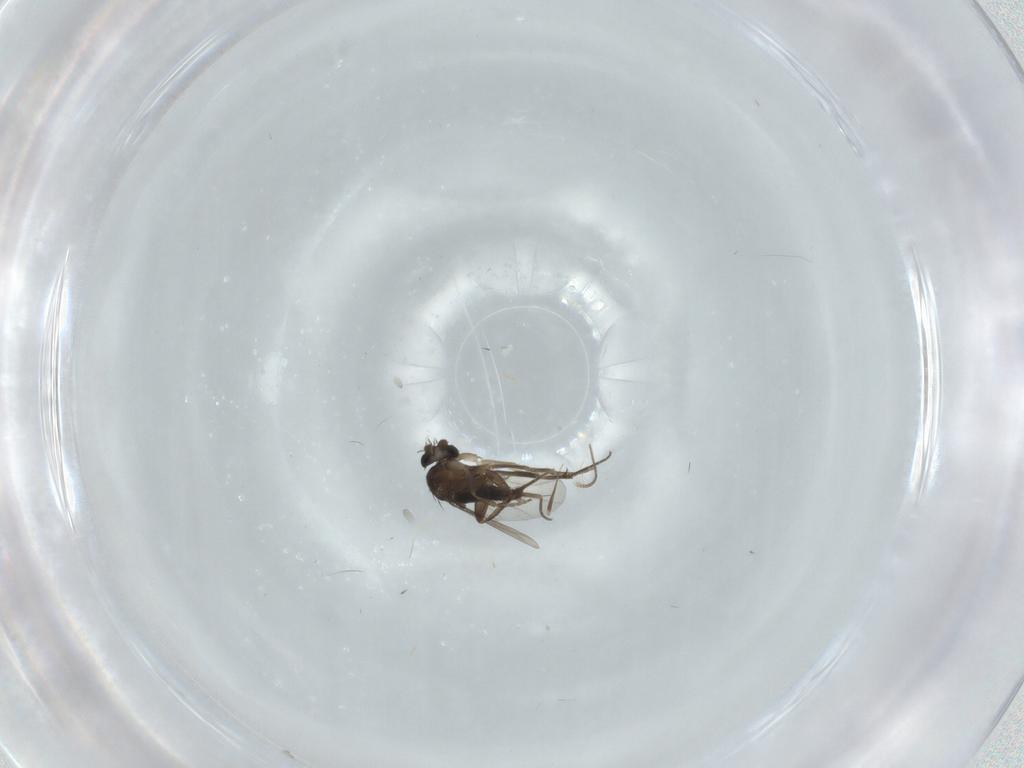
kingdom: Animalia
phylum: Arthropoda
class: Insecta
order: Diptera
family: Phoridae
